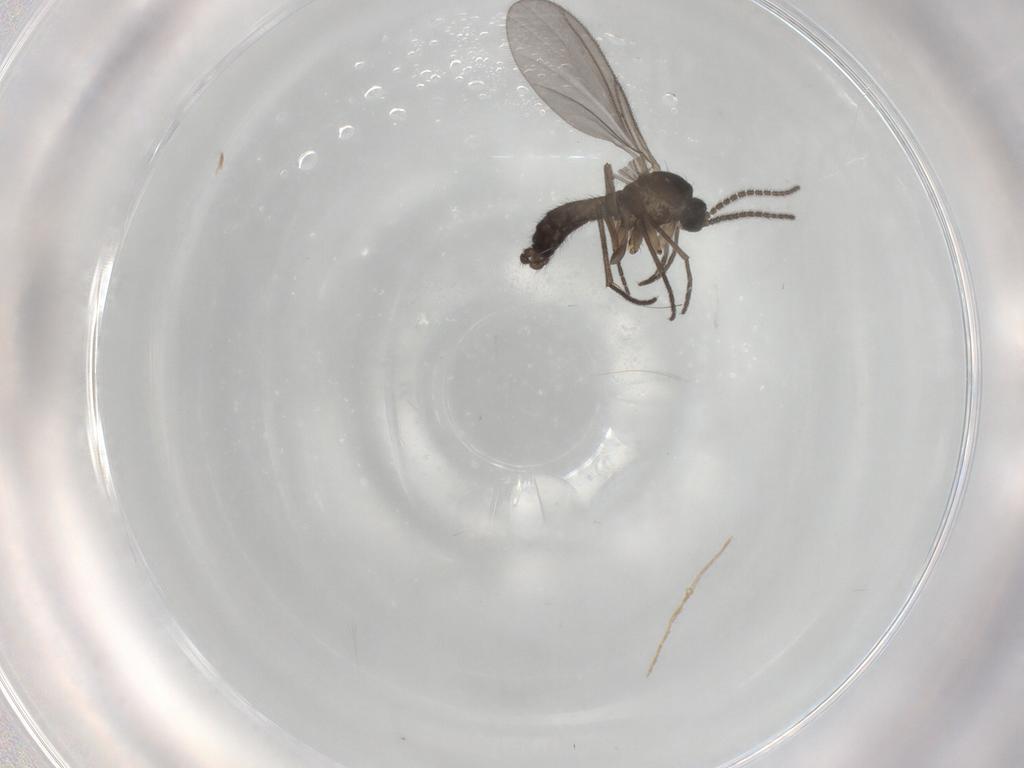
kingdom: Animalia
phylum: Arthropoda
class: Insecta
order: Diptera
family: Sciaridae
